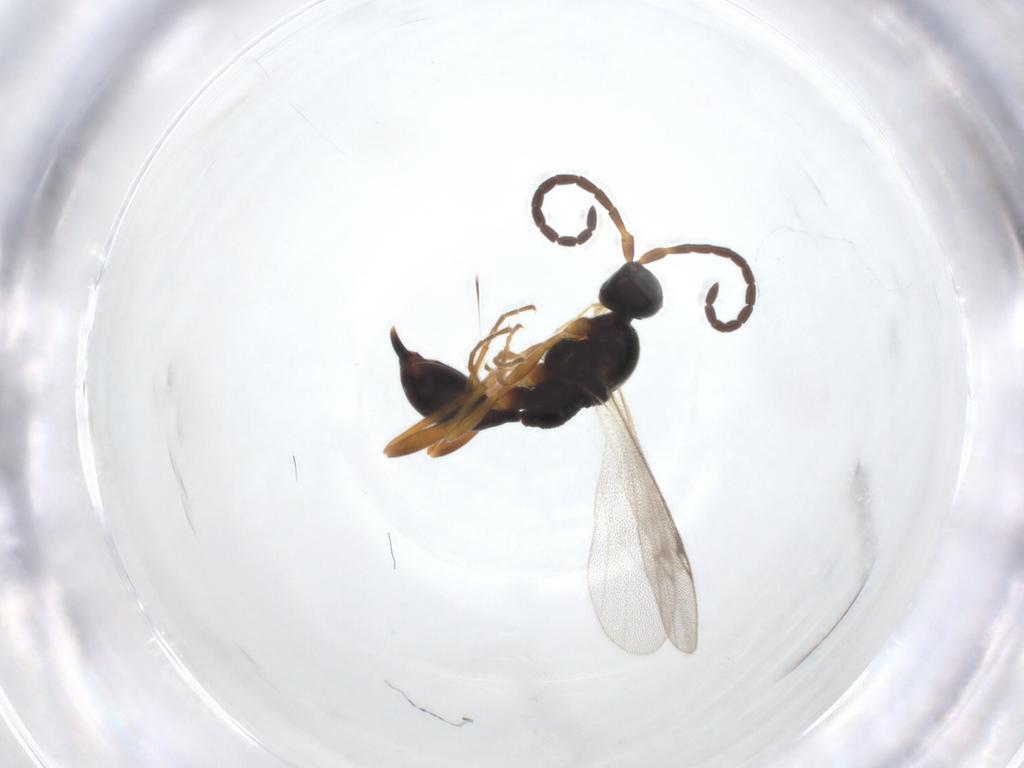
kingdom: Animalia
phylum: Arthropoda
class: Insecta
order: Hymenoptera
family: Proctotrupidae
